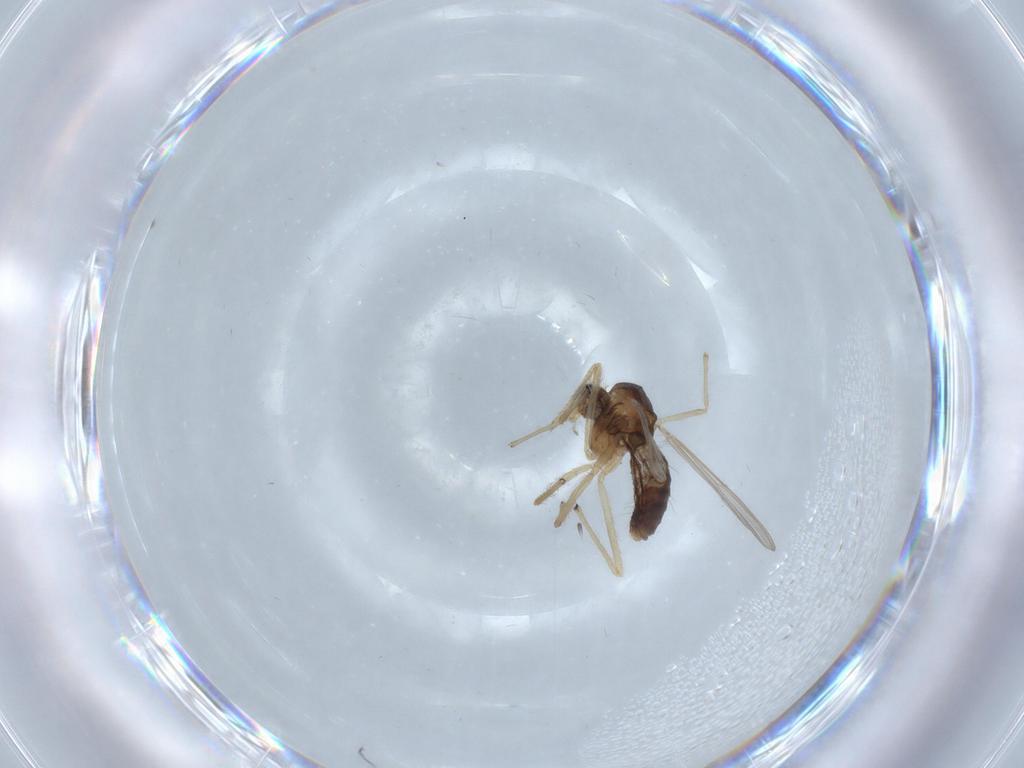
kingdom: Animalia
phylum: Arthropoda
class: Insecta
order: Diptera
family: Chironomidae
